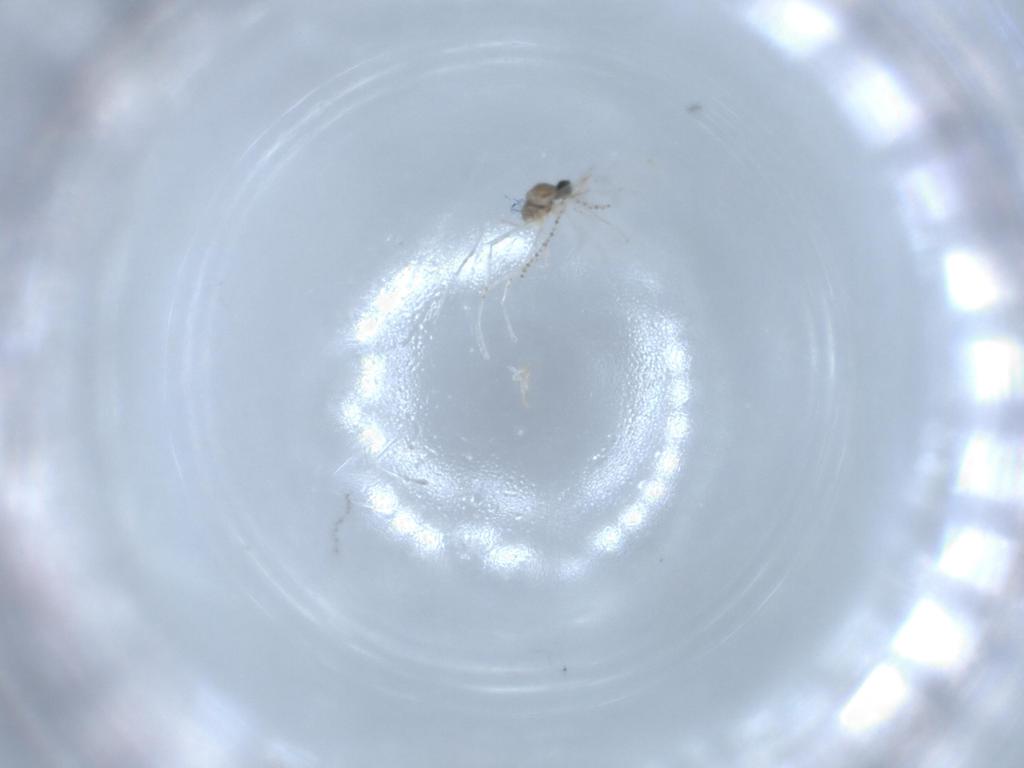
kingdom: Animalia
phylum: Arthropoda
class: Insecta
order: Diptera
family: Cecidomyiidae
